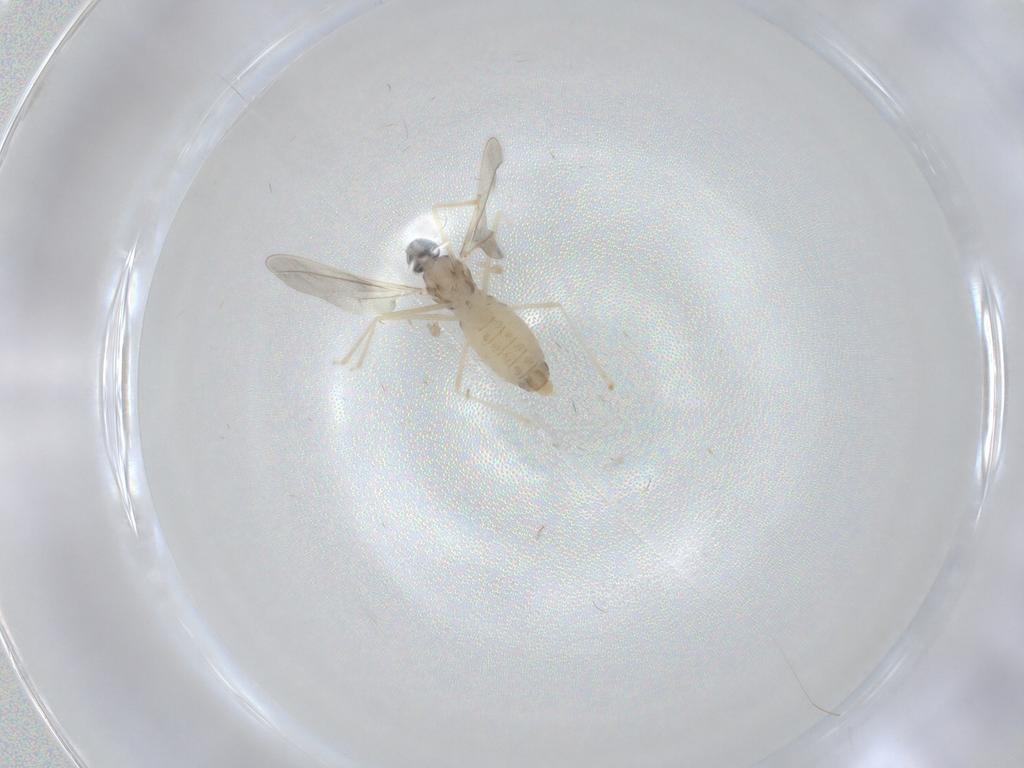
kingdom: Animalia
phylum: Arthropoda
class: Insecta
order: Diptera
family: Cecidomyiidae
